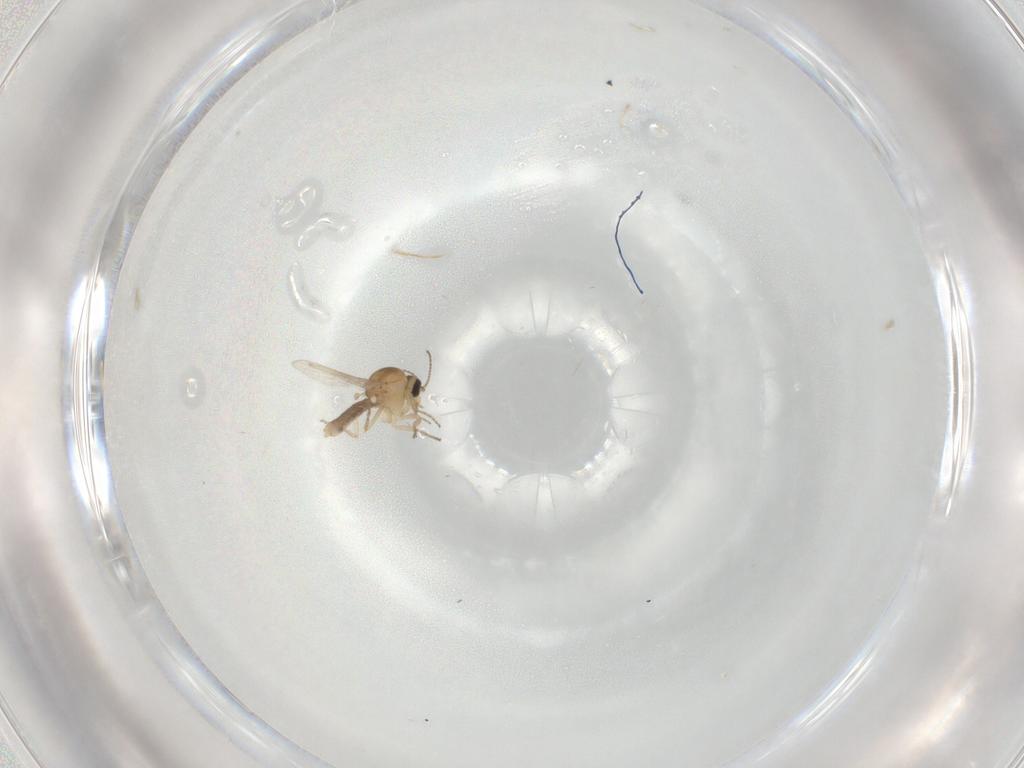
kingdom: Animalia
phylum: Arthropoda
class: Insecta
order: Diptera
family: Ceratopogonidae
